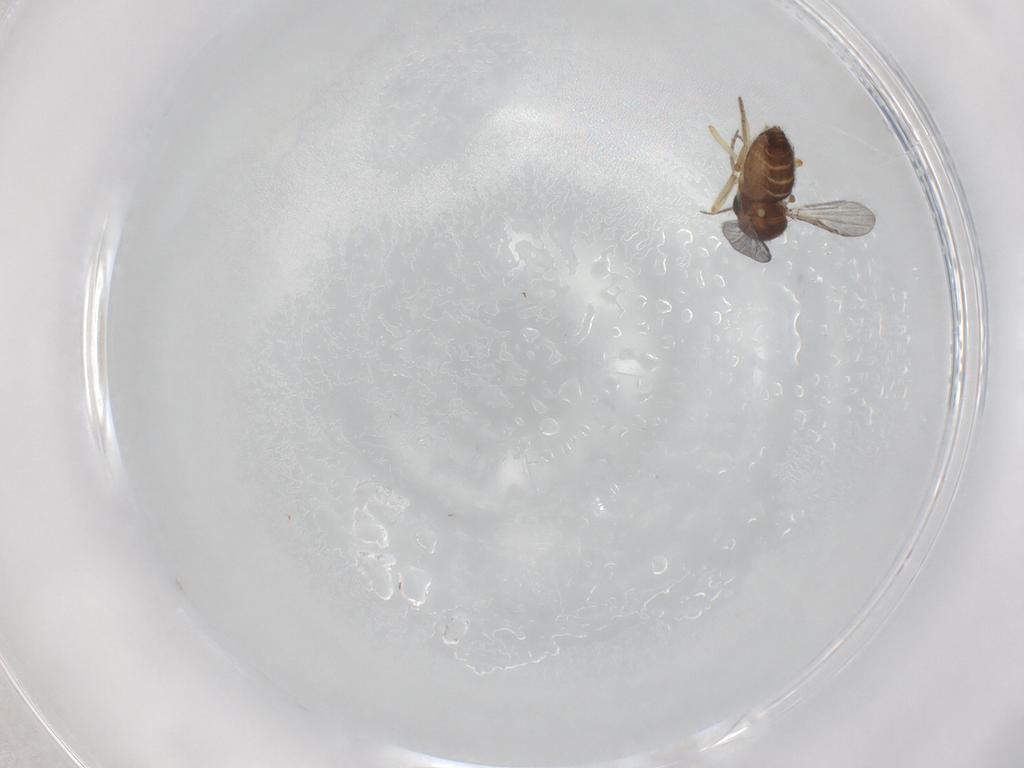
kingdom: Animalia
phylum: Arthropoda
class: Insecta
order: Diptera
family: Ceratopogonidae
